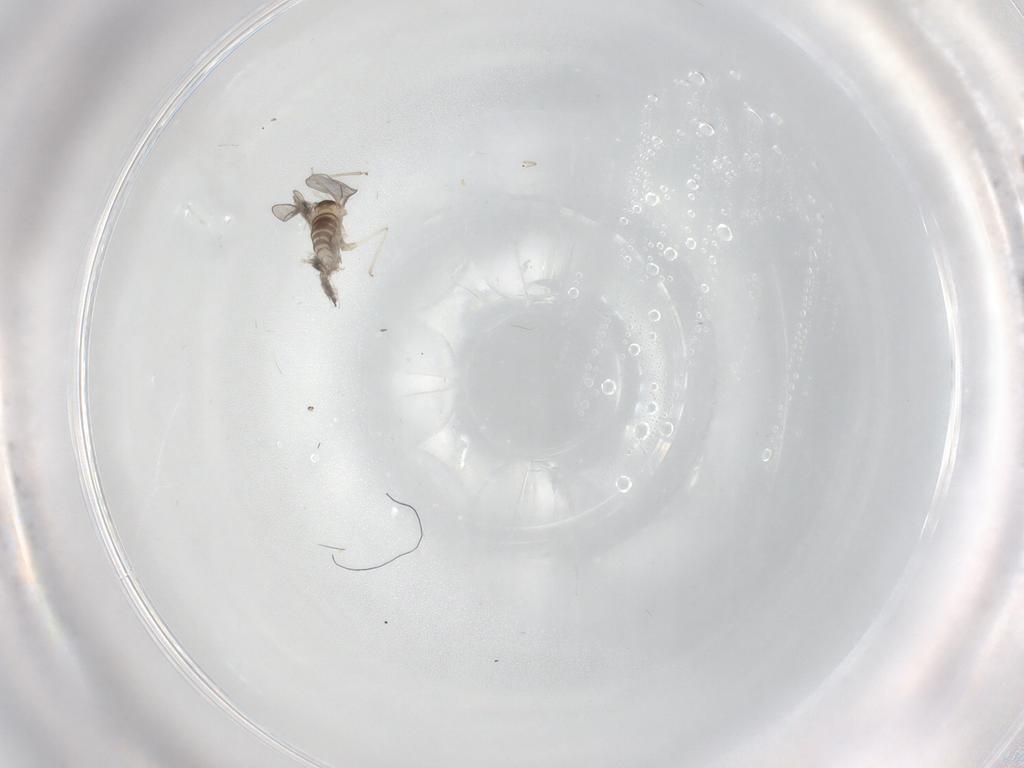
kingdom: Animalia
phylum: Arthropoda
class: Insecta
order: Diptera
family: Cecidomyiidae
